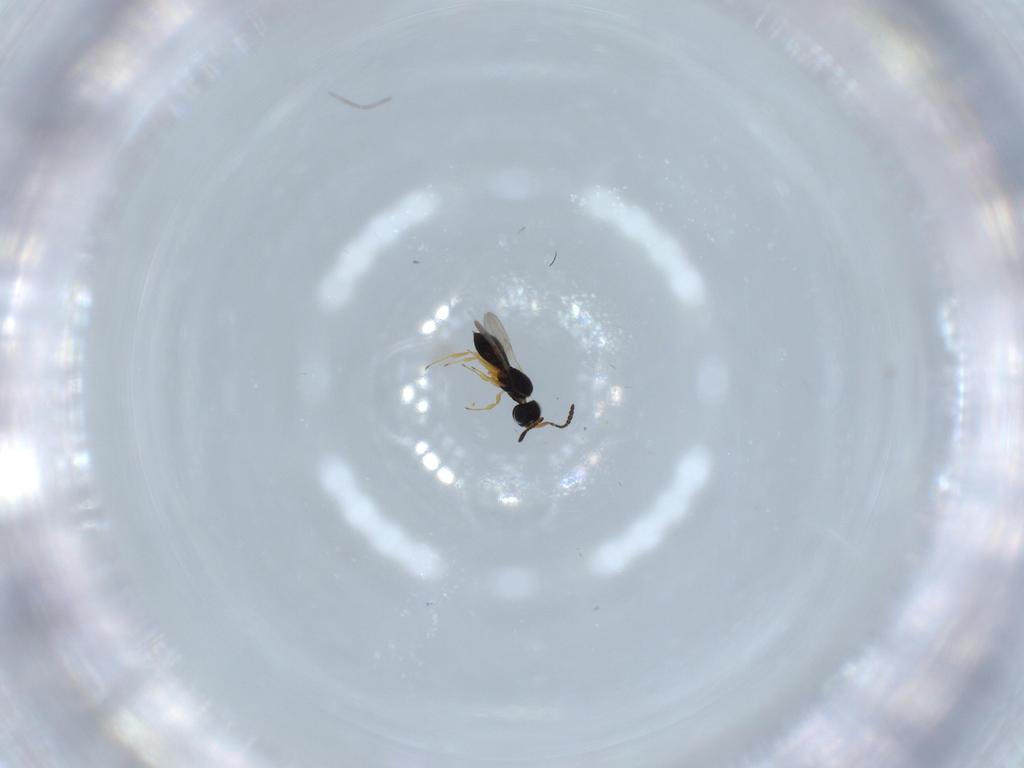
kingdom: Animalia
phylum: Arthropoda
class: Insecta
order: Hymenoptera
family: Scelionidae
